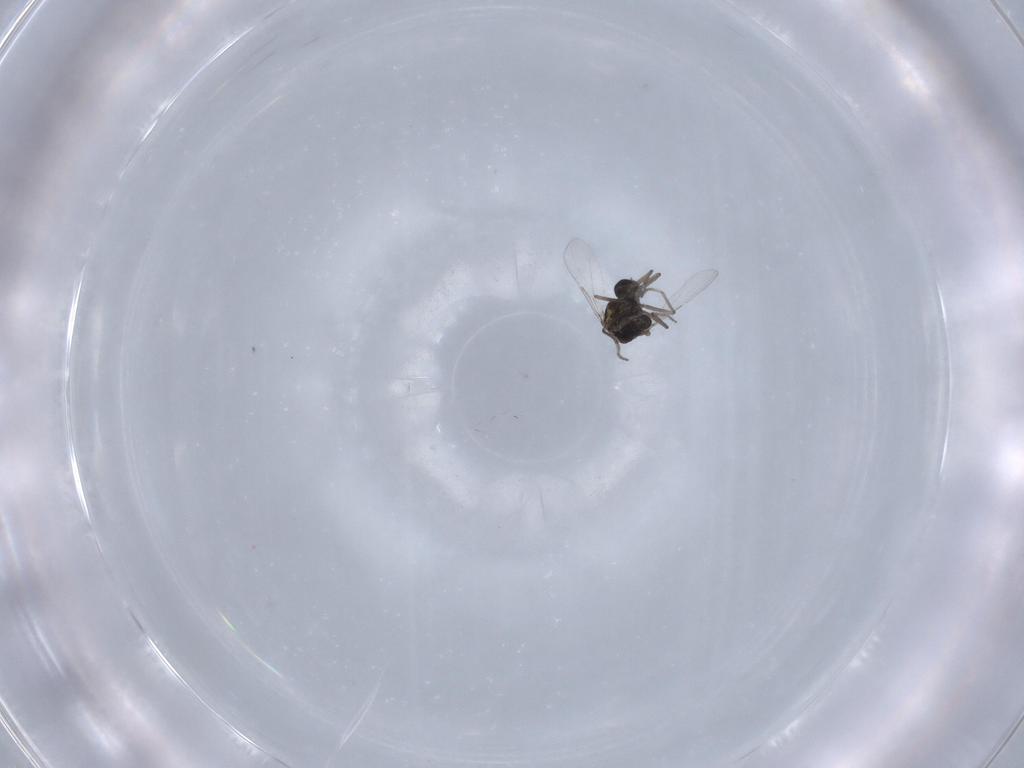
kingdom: Animalia
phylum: Arthropoda
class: Insecta
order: Diptera
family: Ceratopogonidae
